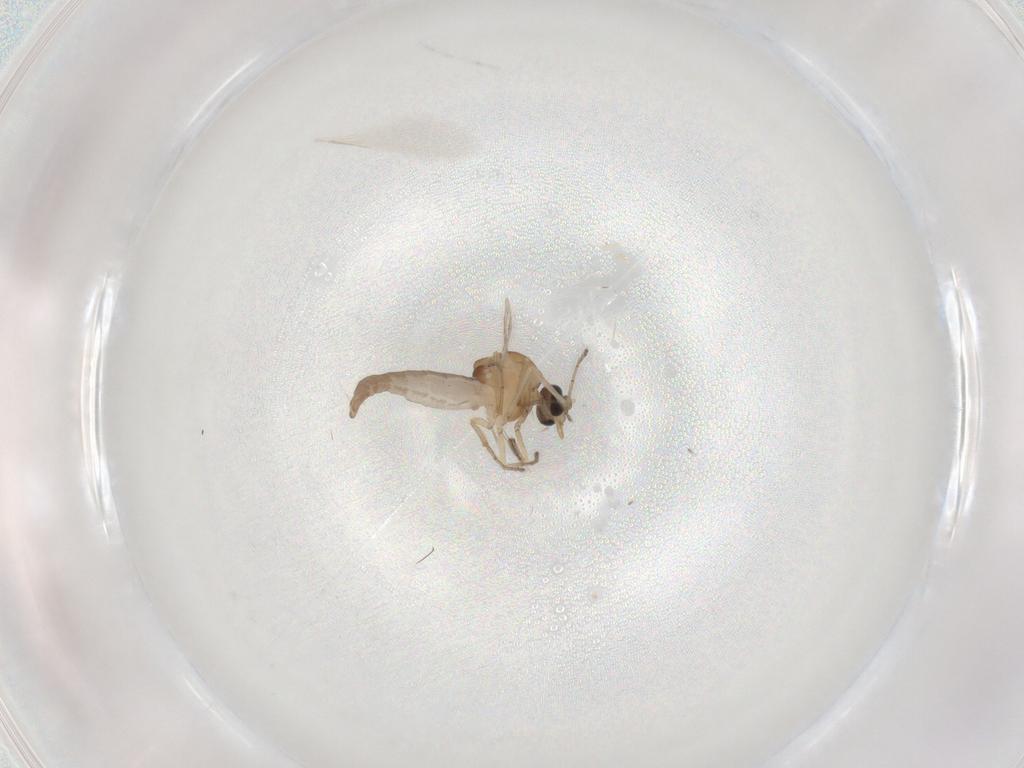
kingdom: Animalia
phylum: Arthropoda
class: Insecta
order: Diptera
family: Ceratopogonidae
